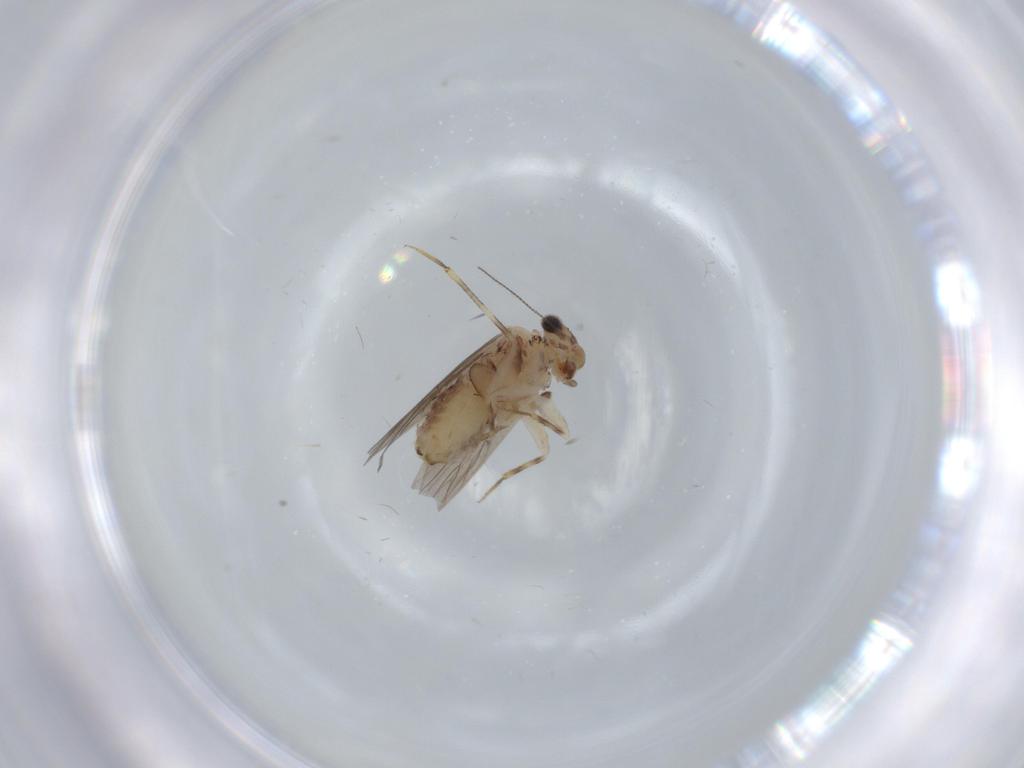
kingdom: Animalia
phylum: Arthropoda
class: Insecta
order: Psocodea
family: Lepidopsocidae
